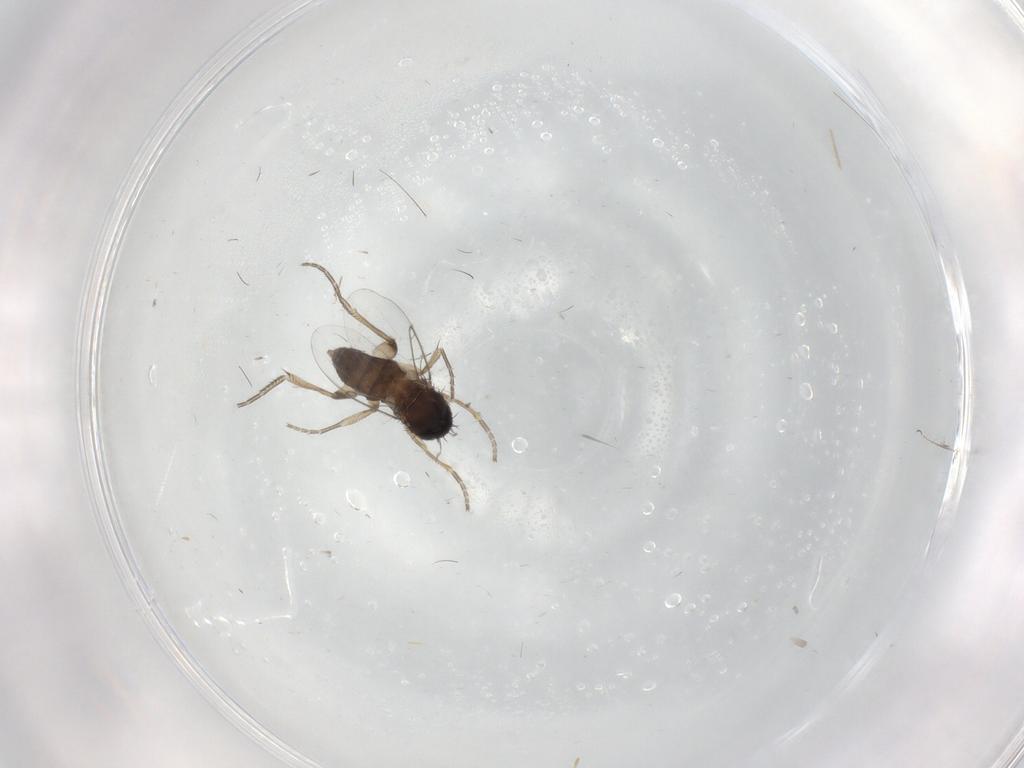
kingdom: Animalia
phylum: Arthropoda
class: Insecta
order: Diptera
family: Phoridae
